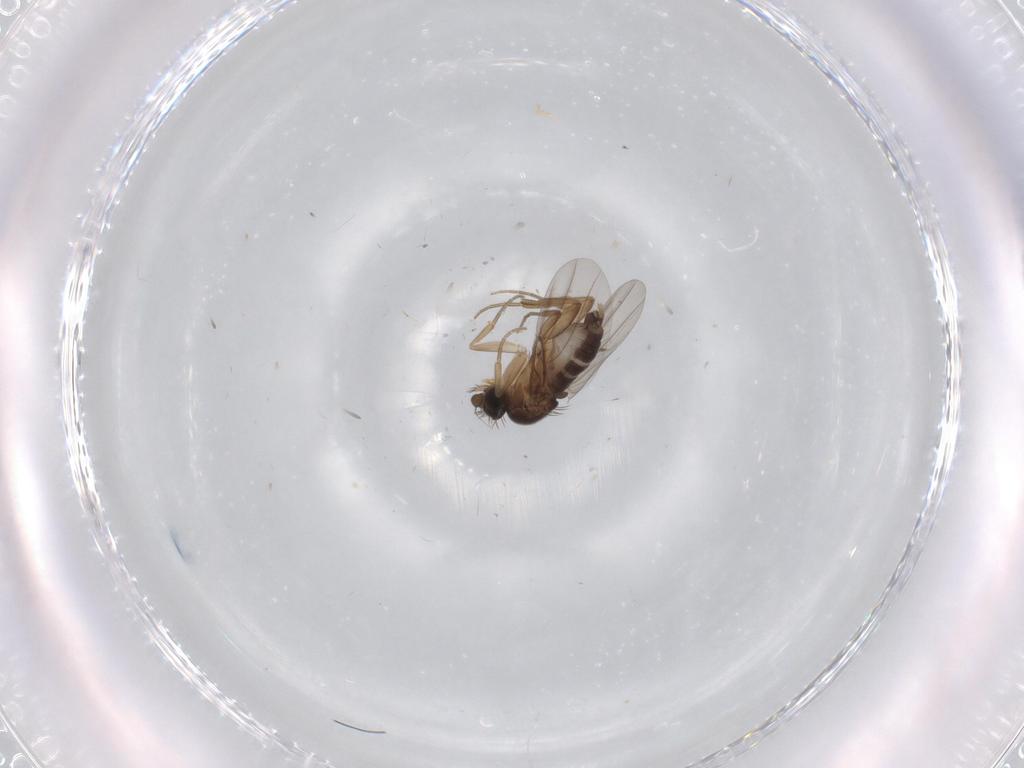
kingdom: Animalia
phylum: Arthropoda
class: Insecta
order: Diptera
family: Phoridae
